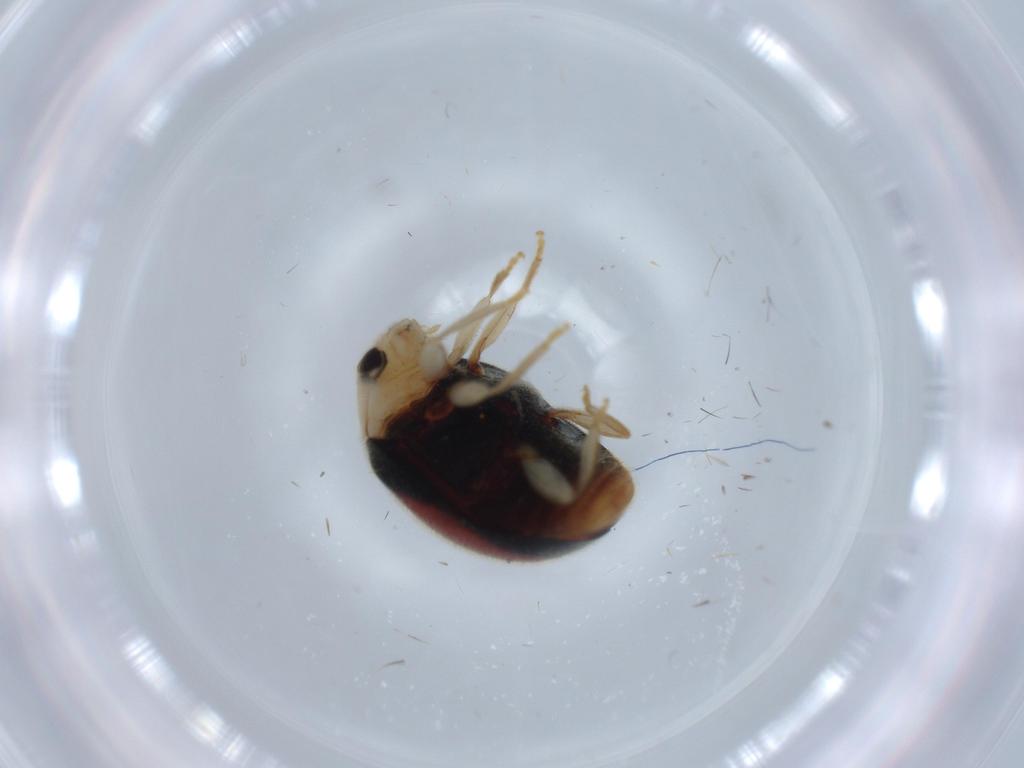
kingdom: Animalia
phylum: Arthropoda
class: Insecta
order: Coleoptera
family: Coccinellidae
